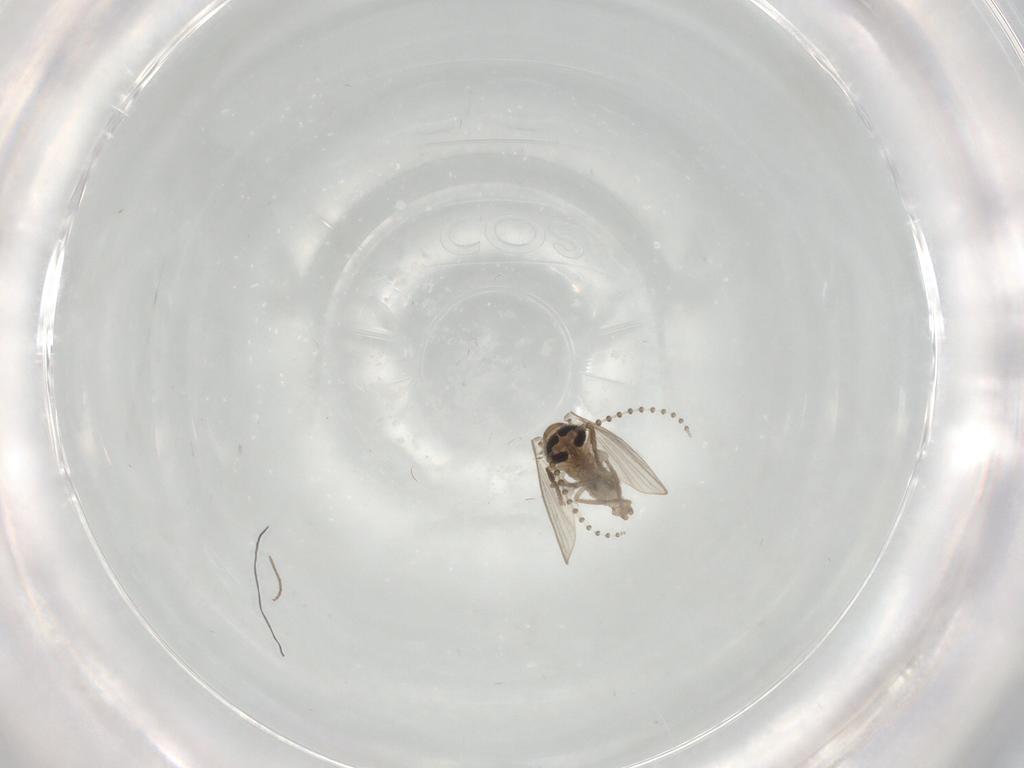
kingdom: Animalia
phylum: Arthropoda
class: Insecta
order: Diptera
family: Psychodidae
